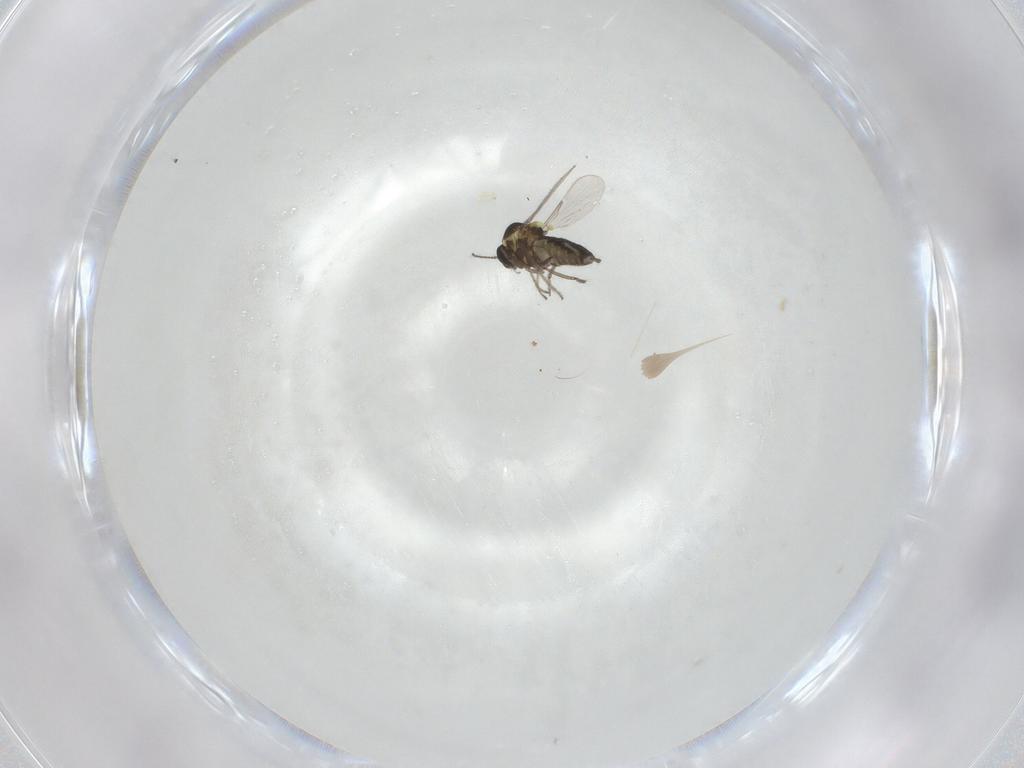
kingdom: Animalia
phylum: Arthropoda
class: Insecta
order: Diptera
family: Ceratopogonidae
